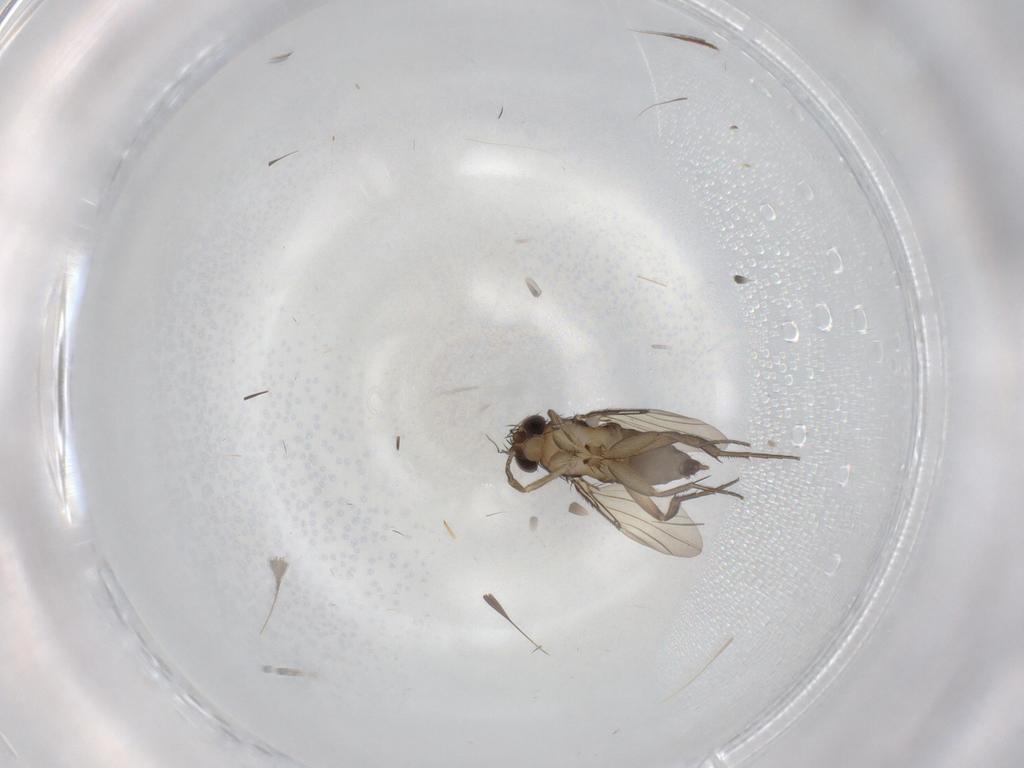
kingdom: Animalia
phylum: Arthropoda
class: Insecta
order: Diptera
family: Phoridae
